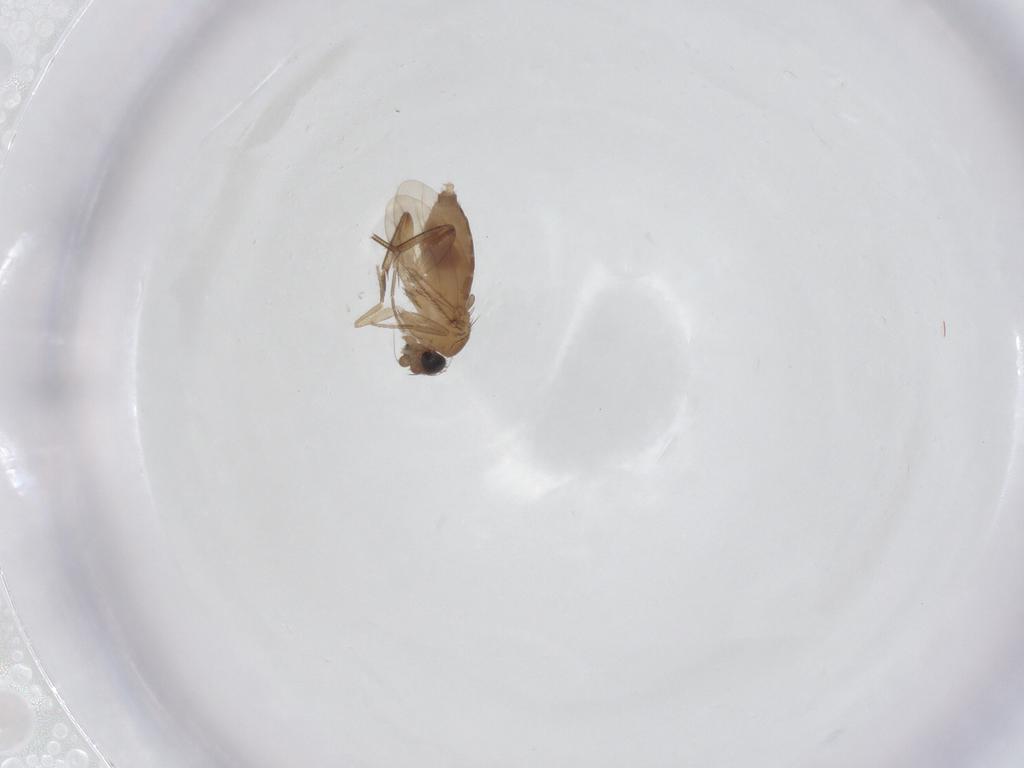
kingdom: Animalia
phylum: Arthropoda
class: Insecta
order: Diptera
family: Phoridae
